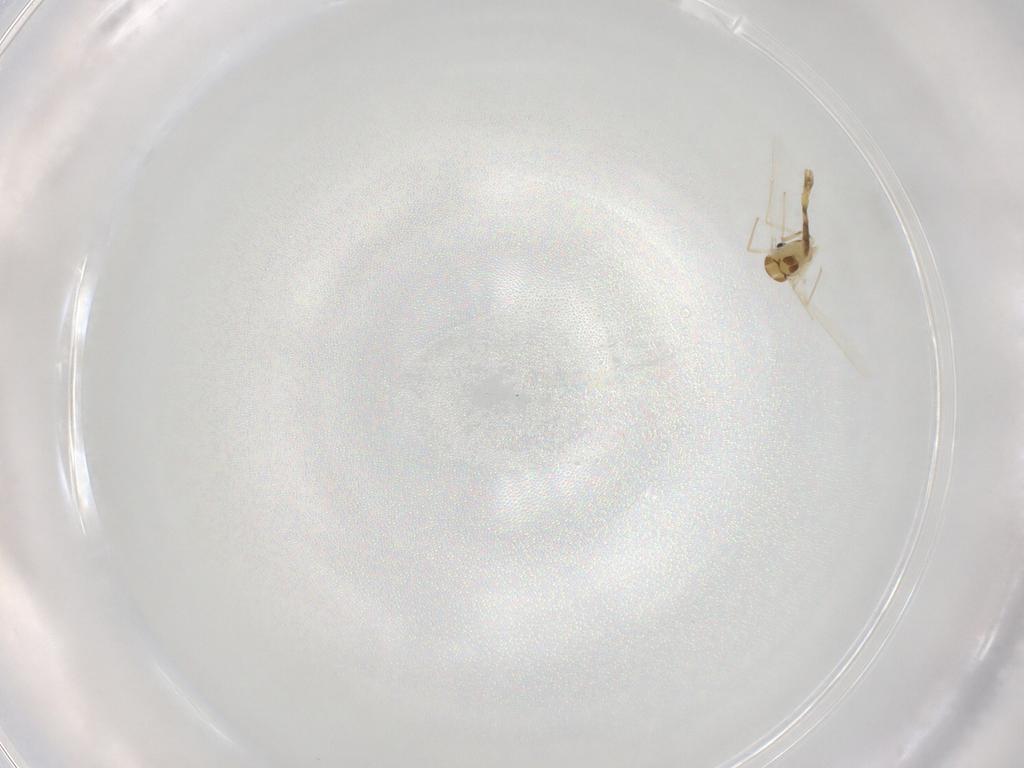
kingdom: Animalia
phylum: Arthropoda
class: Insecta
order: Diptera
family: Chironomidae
